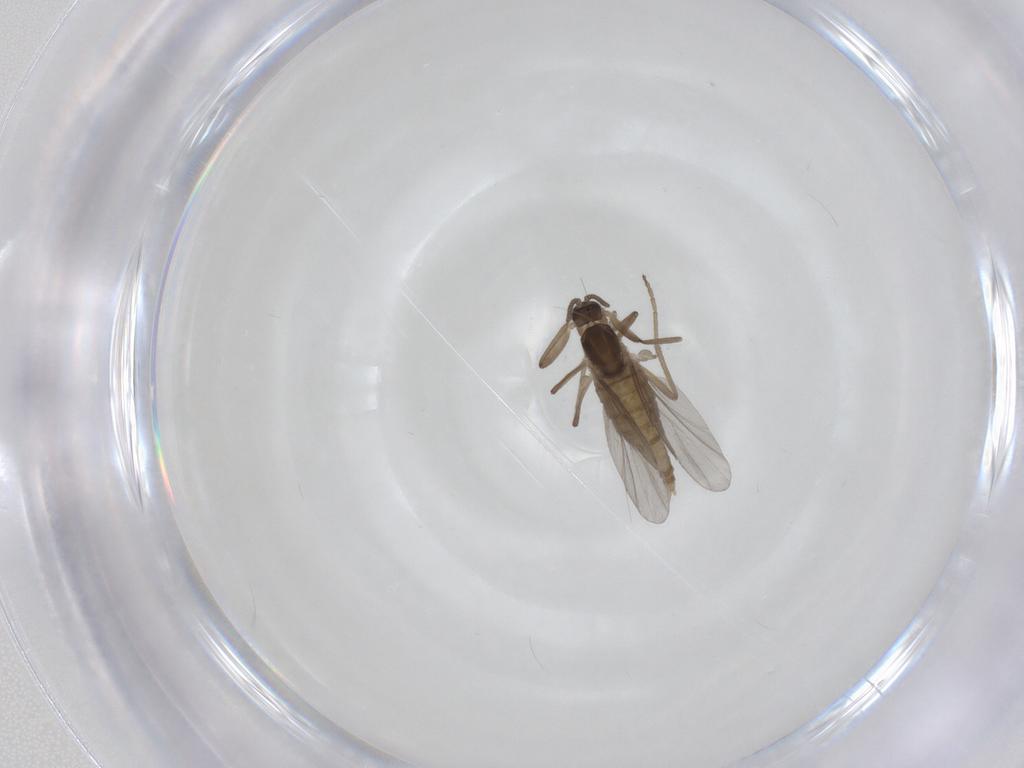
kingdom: Animalia
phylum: Arthropoda
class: Insecta
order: Diptera
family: Cecidomyiidae
